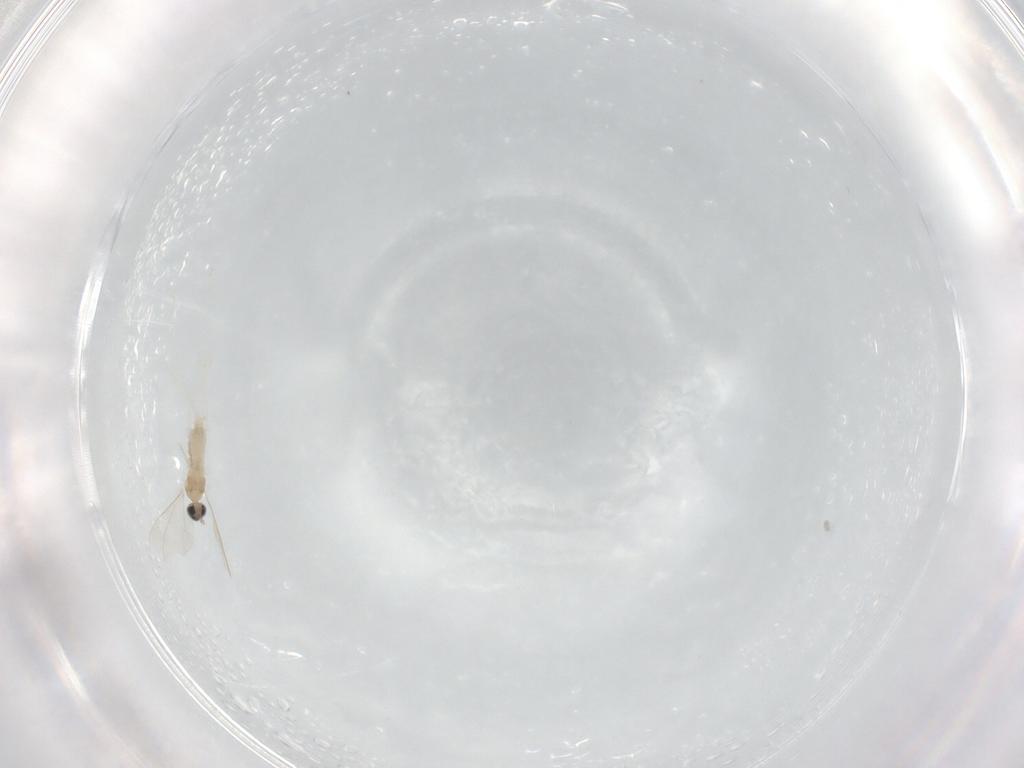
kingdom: Animalia
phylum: Arthropoda
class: Insecta
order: Diptera
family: Cecidomyiidae
